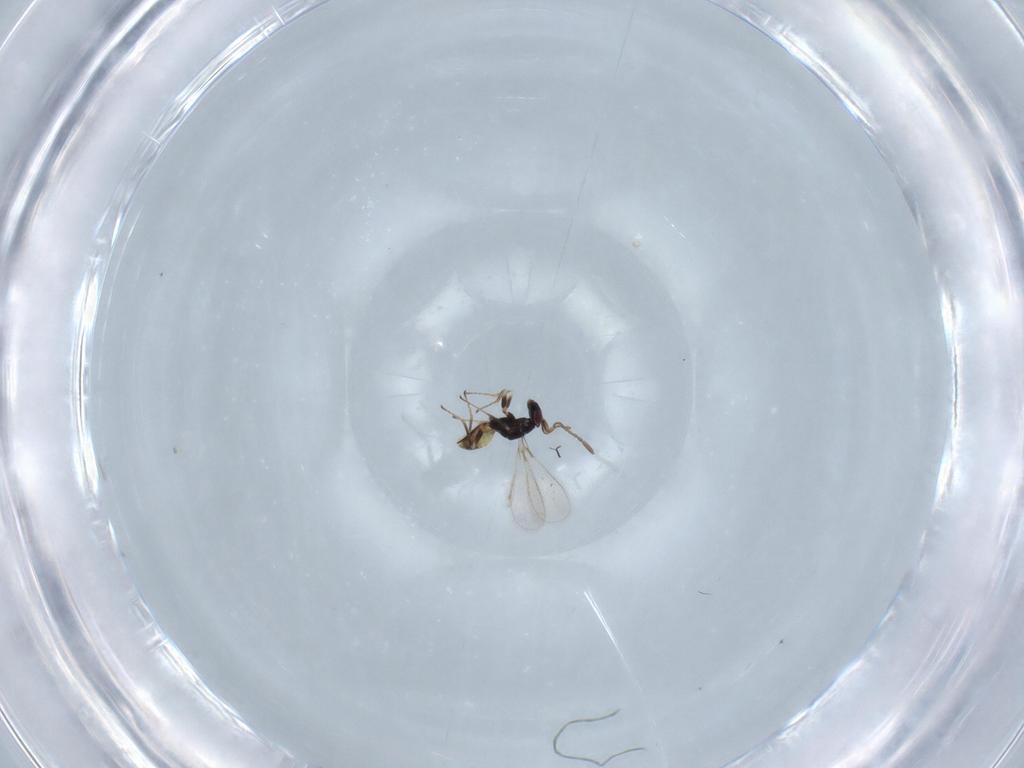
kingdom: Animalia
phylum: Arthropoda
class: Insecta
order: Hymenoptera
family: Mymaridae
